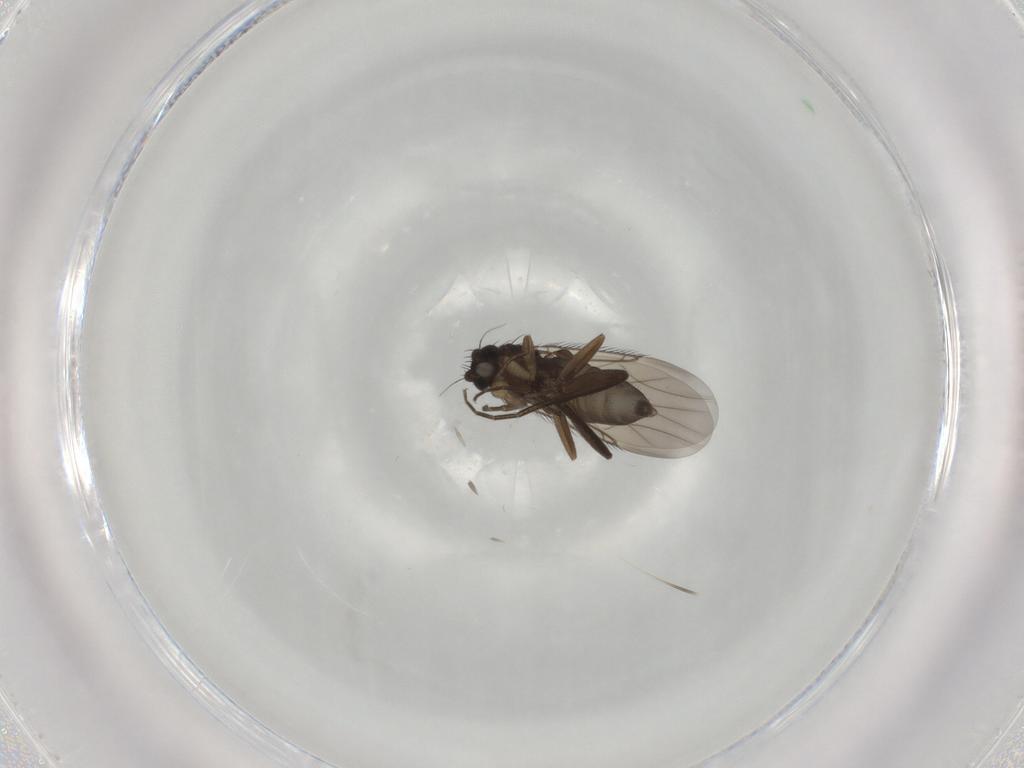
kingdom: Animalia
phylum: Arthropoda
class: Insecta
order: Diptera
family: Phoridae
